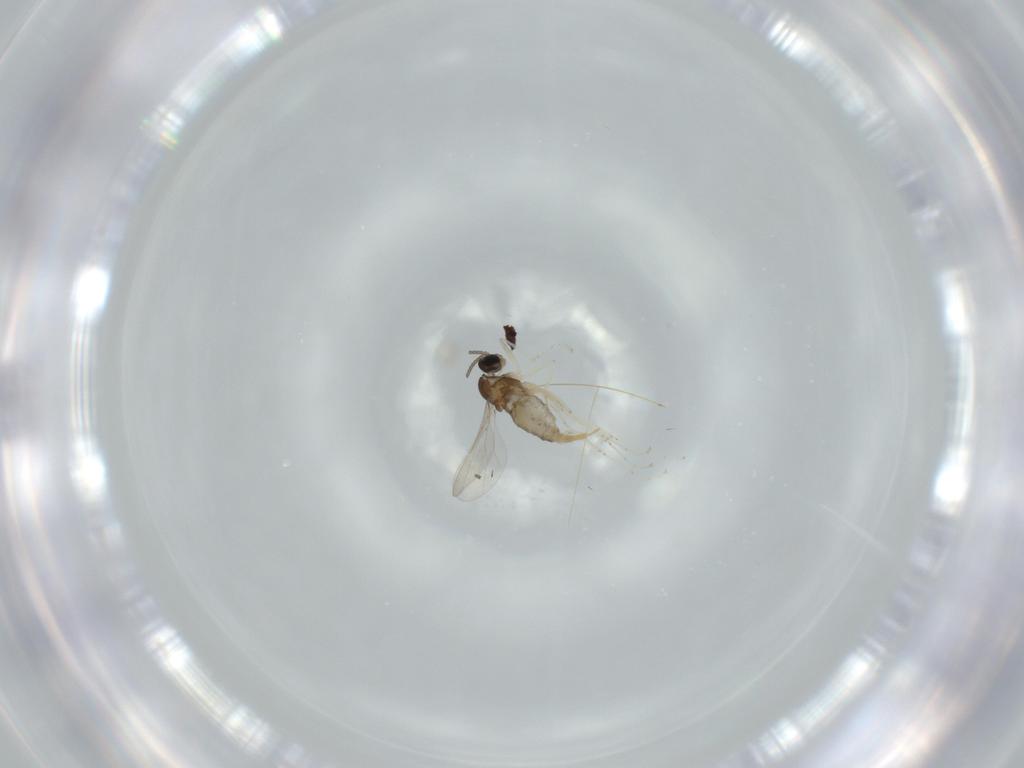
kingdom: Animalia
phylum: Arthropoda
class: Insecta
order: Diptera
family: Cecidomyiidae
